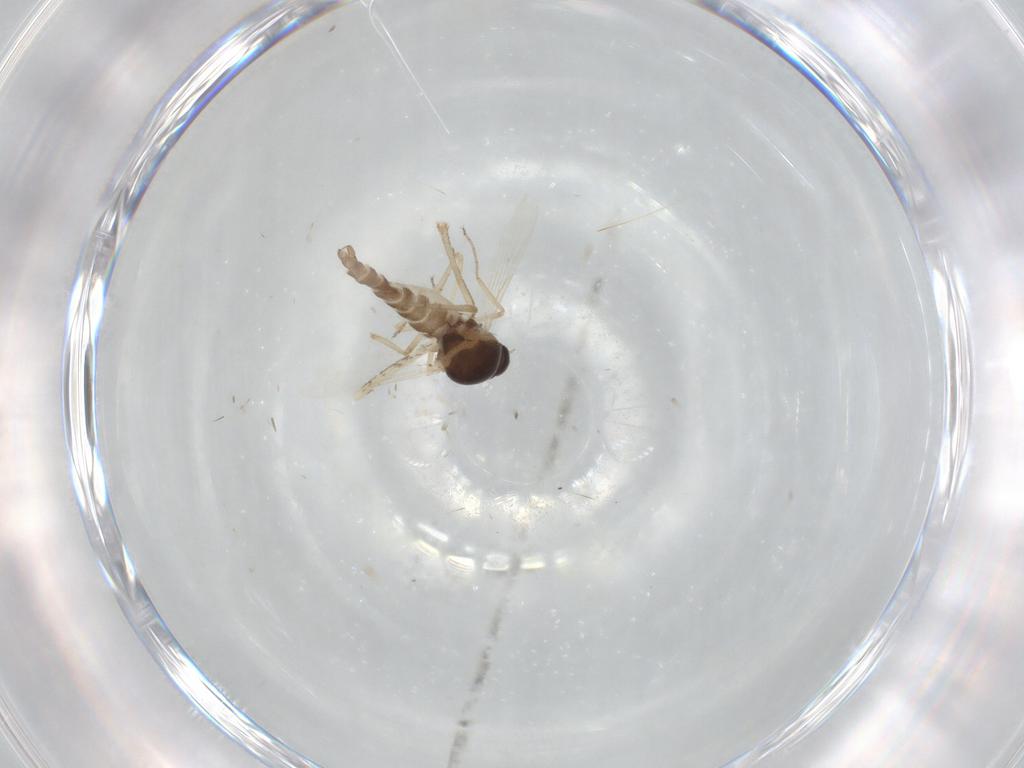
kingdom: Animalia
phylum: Arthropoda
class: Insecta
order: Diptera
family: Ceratopogonidae
